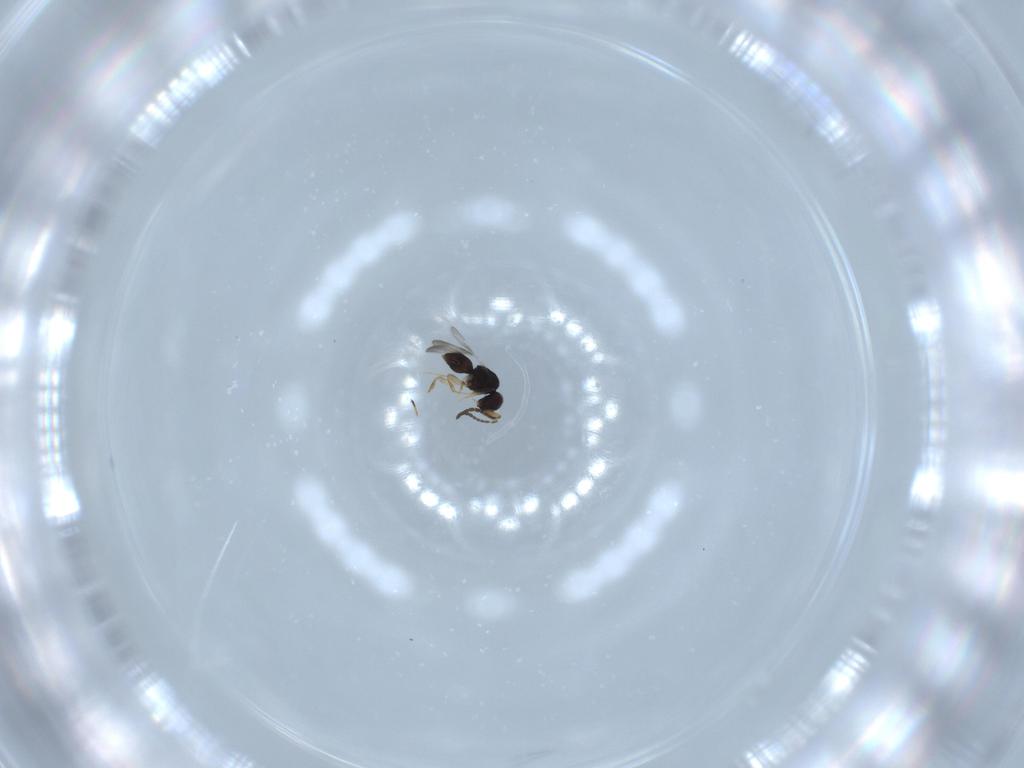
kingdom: Animalia
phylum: Arthropoda
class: Insecta
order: Hymenoptera
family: Ceraphronidae
